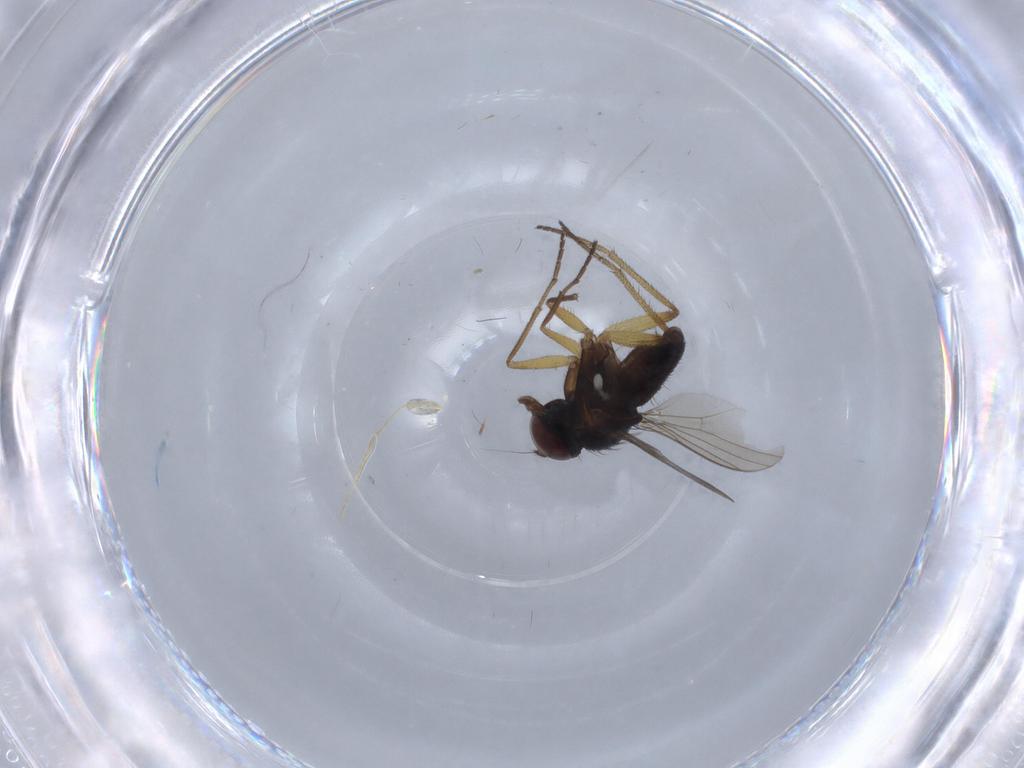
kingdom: Animalia
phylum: Arthropoda
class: Insecta
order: Diptera
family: Dolichopodidae
